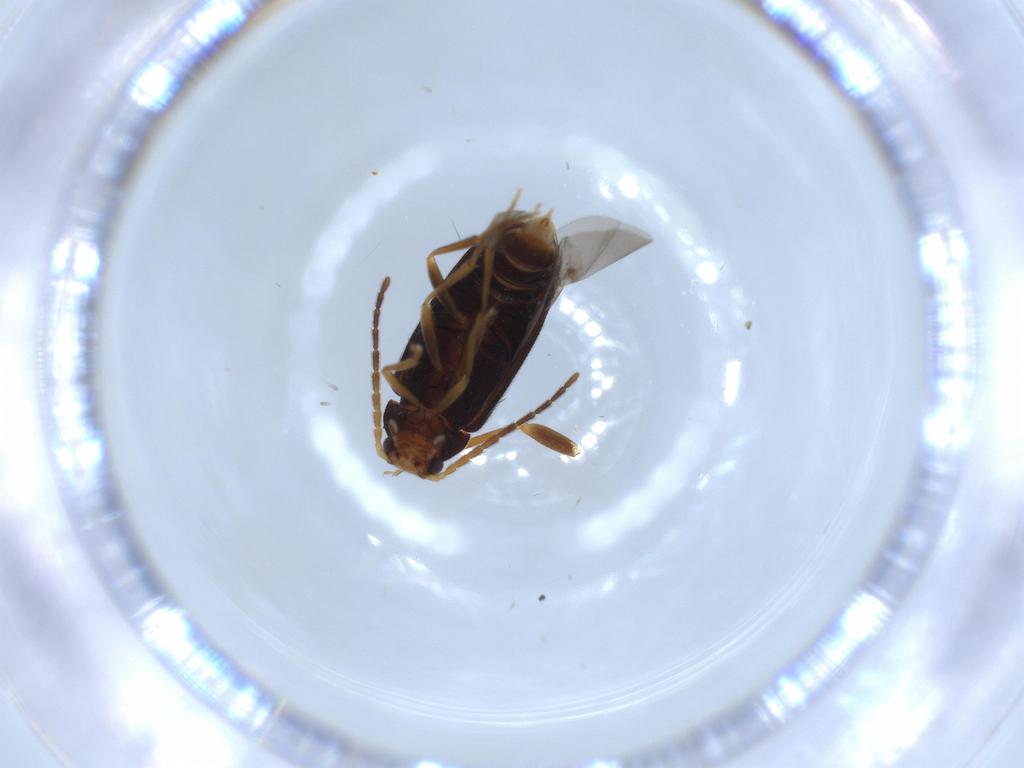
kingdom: Animalia
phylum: Arthropoda
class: Insecta
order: Coleoptera
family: Melandryidae
